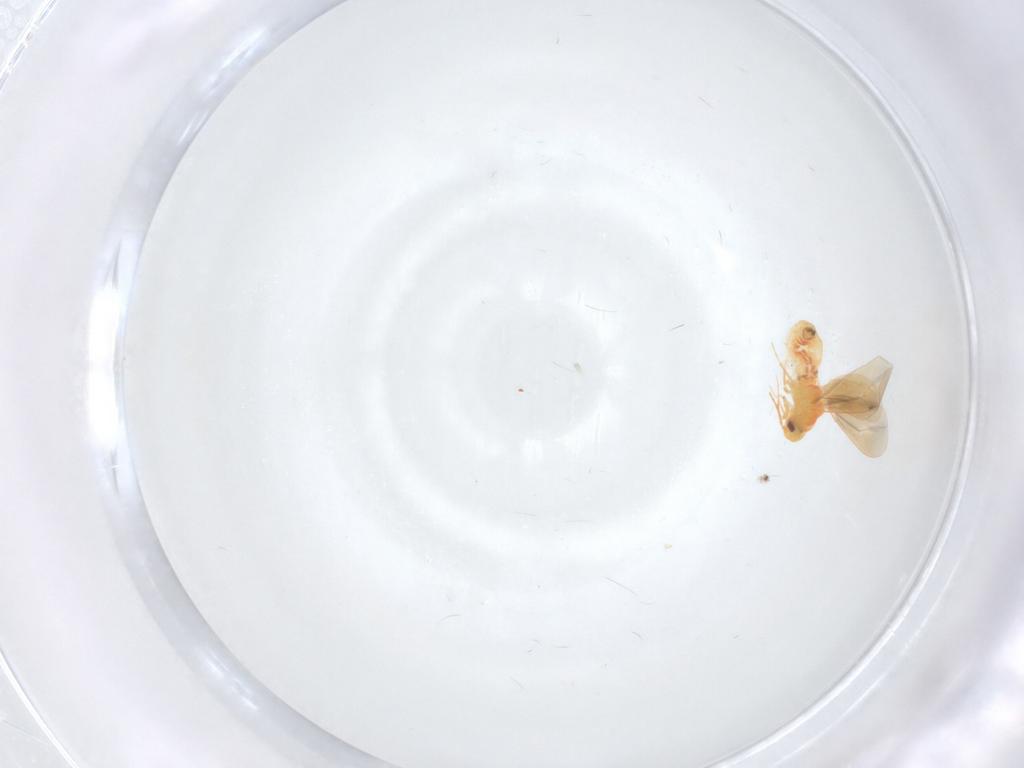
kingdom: Animalia
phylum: Arthropoda
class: Insecta
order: Hemiptera
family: Aleyrodidae
